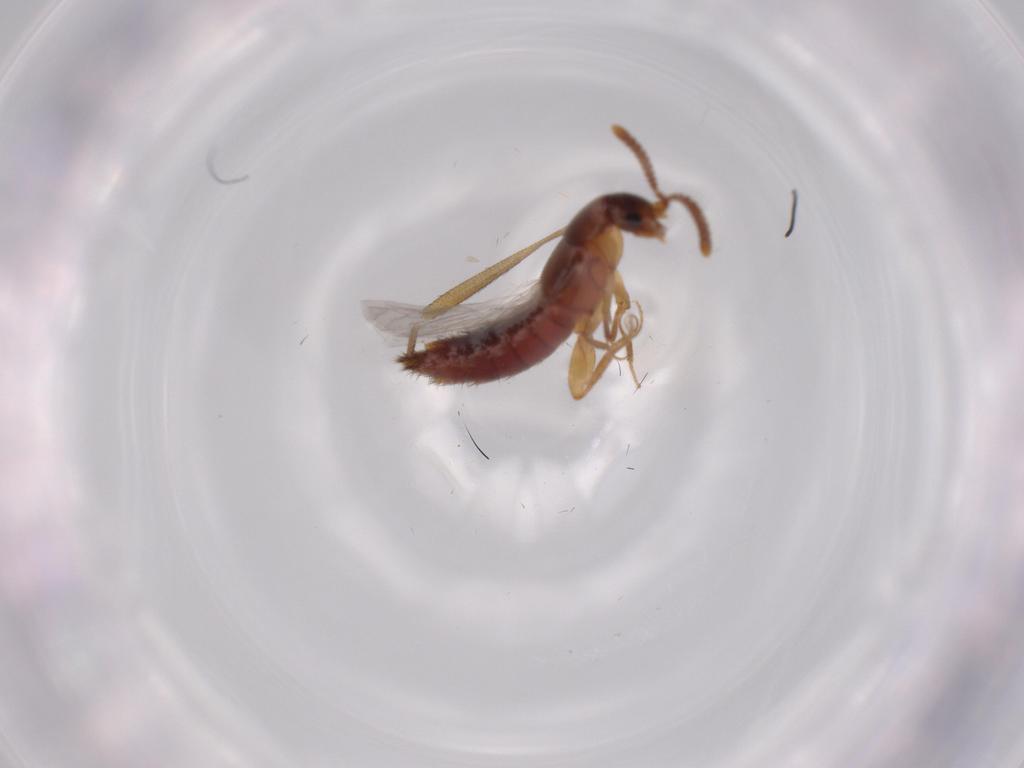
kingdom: Animalia
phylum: Arthropoda
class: Insecta
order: Coleoptera
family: Staphylinidae
